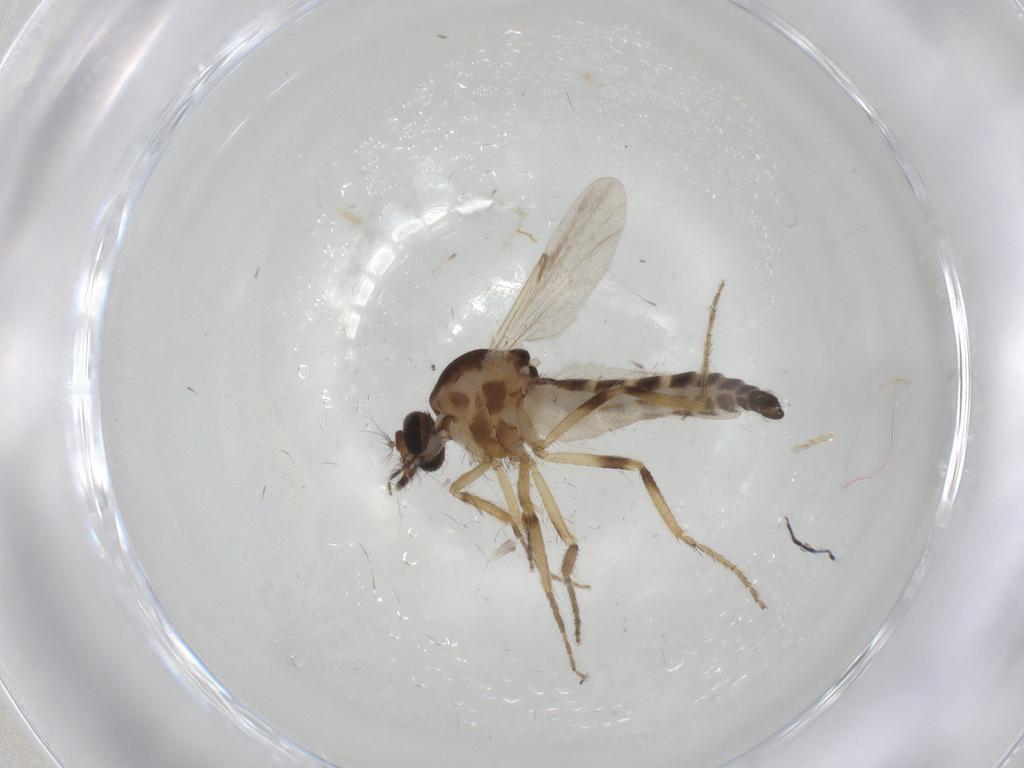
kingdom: Animalia
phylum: Arthropoda
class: Insecta
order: Diptera
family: Ceratopogonidae
